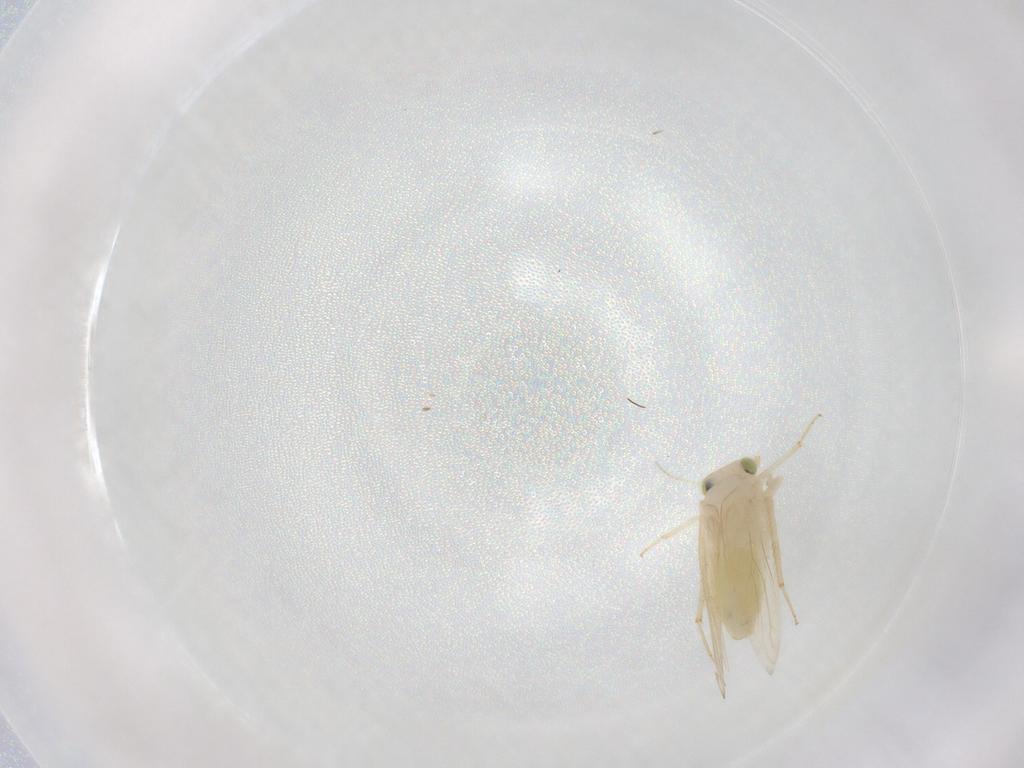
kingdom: Animalia
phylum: Arthropoda
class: Insecta
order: Psocodea
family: Lepidopsocidae
